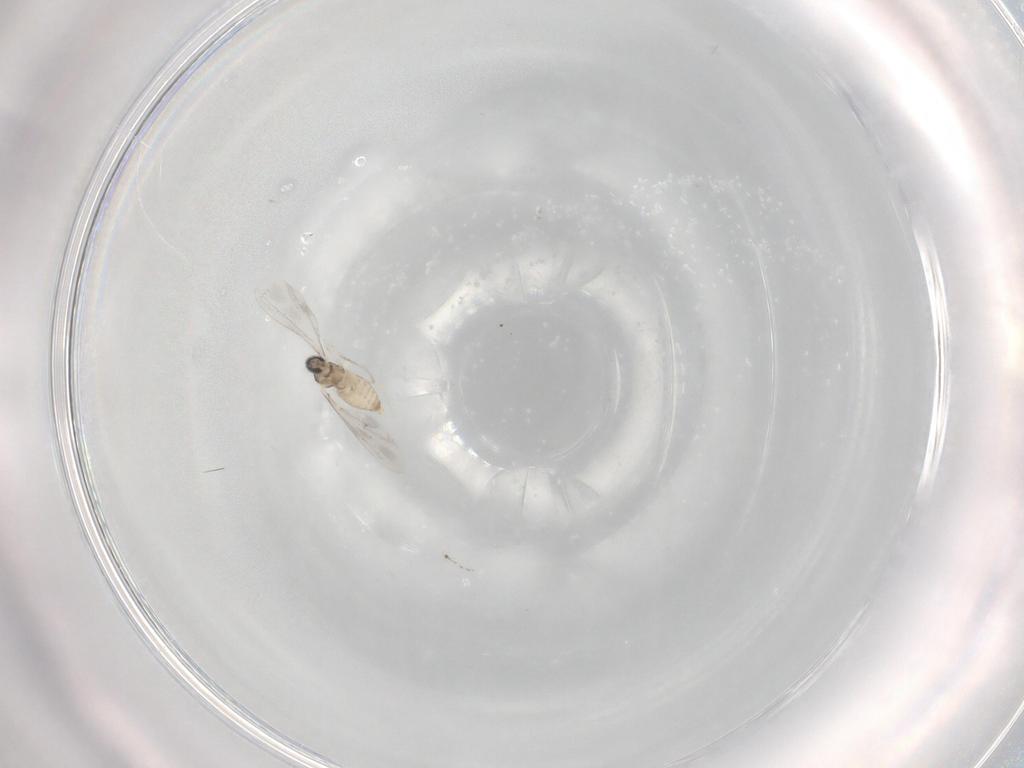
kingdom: Animalia
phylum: Arthropoda
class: Insecta
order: Diptera
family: Cecidomyiidae
